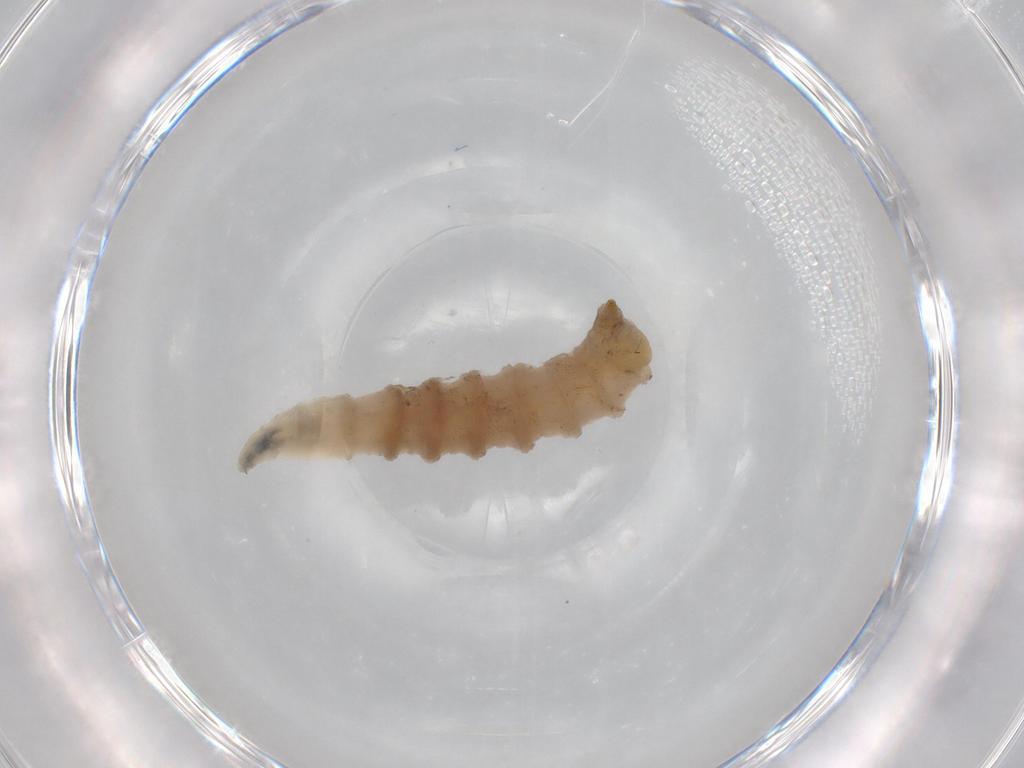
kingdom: Animalia
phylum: Arthropoda
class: Insecta
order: Diptera
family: Drosophilidae
